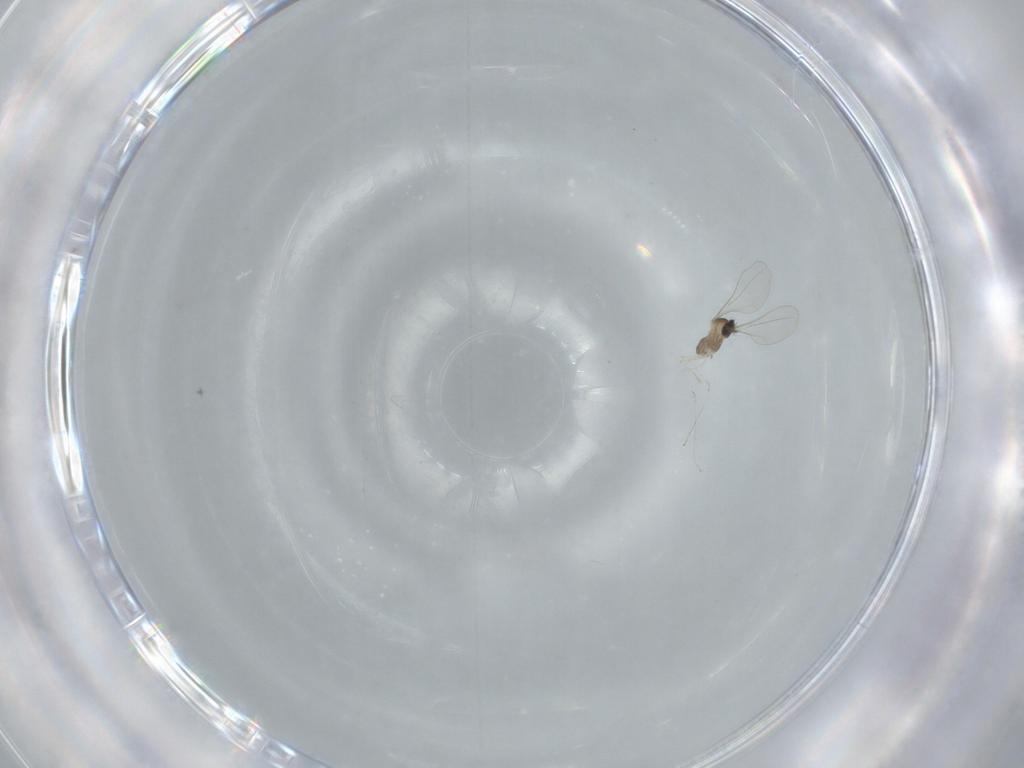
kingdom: Animalia
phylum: Arthropoda
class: Insecta
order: Diptera
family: Cecidomyiidae
